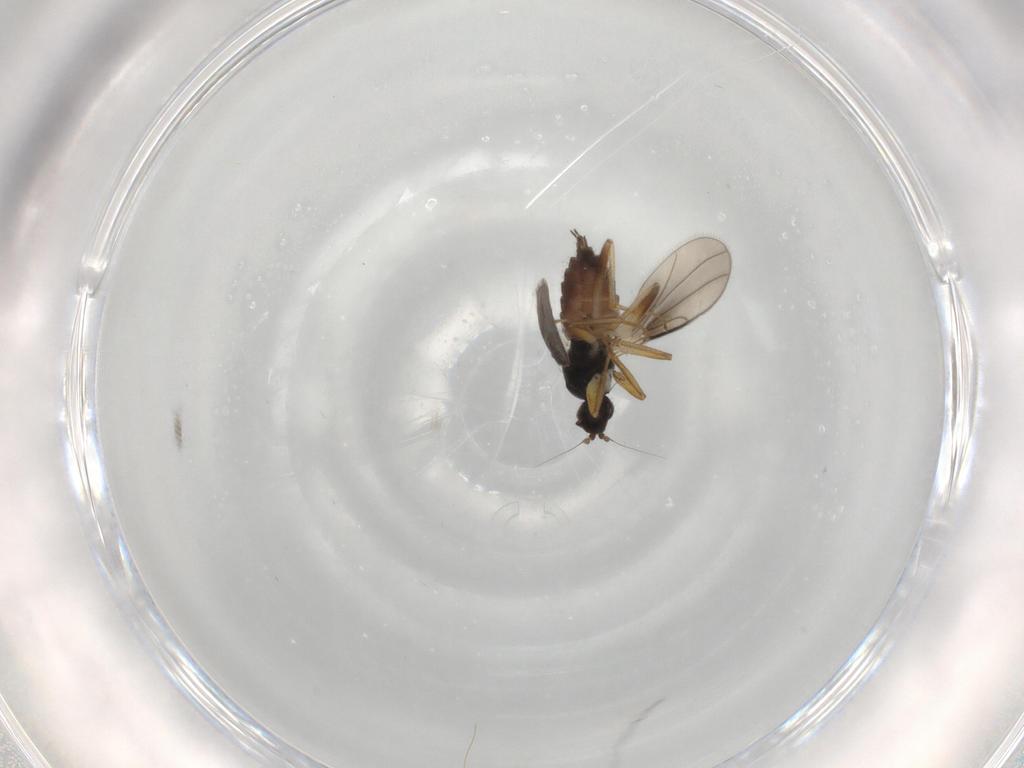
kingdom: Animalia
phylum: Arthropoda
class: Insecta
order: Diptera
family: Hybotidae
